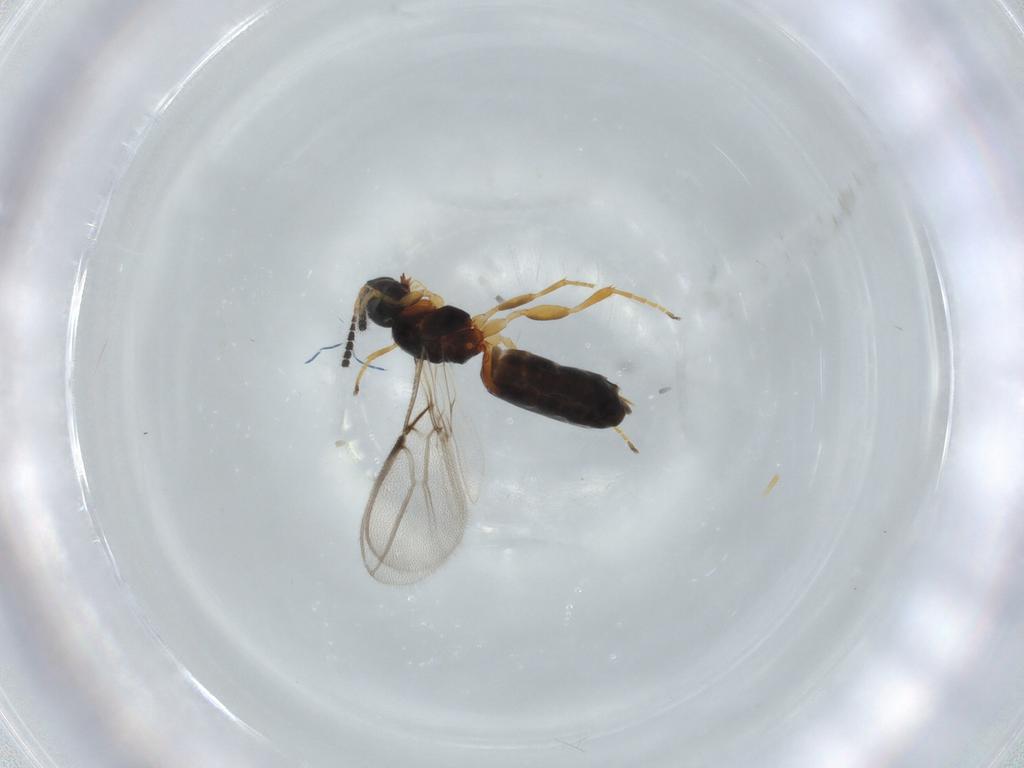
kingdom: Animalia
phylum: Arthropoda
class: Insecta
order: Hymenoptera
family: Braconidae
